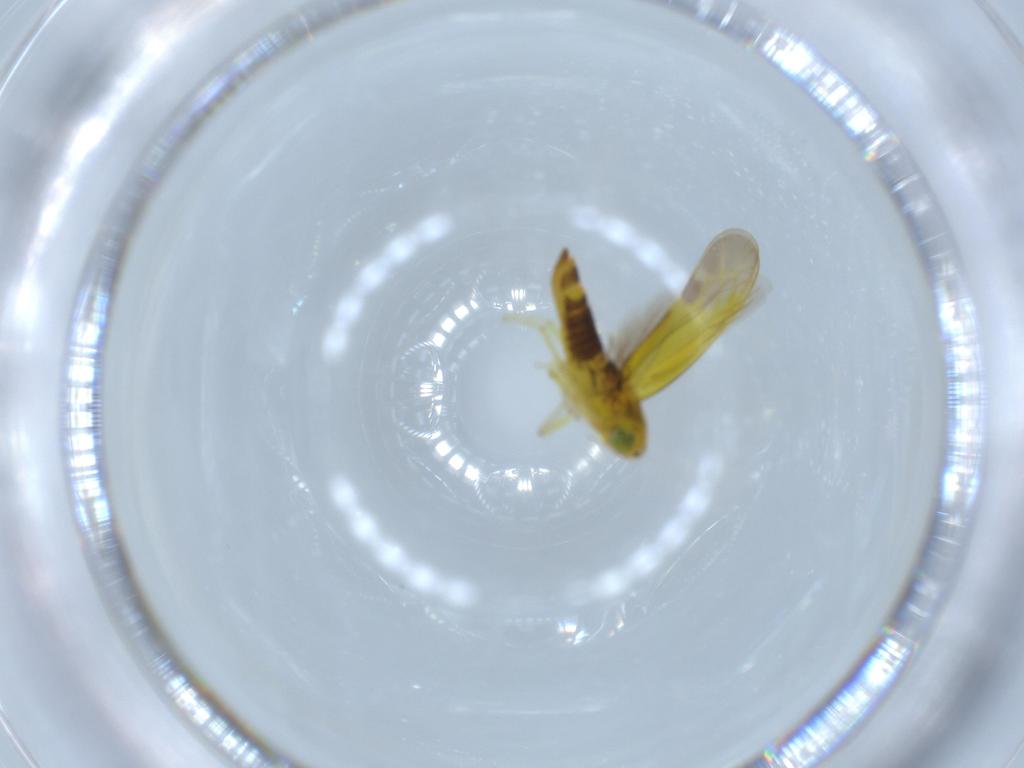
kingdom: Animalia
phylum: Arthropoda
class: Insecta
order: Hemiptera
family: Cicadellidae
